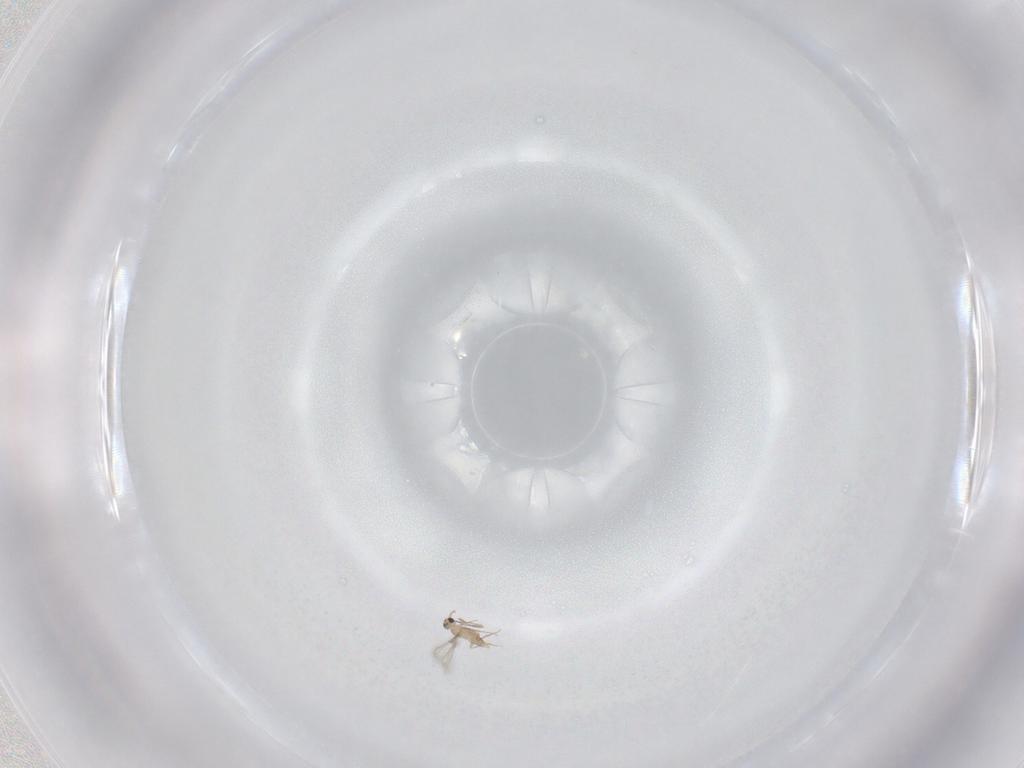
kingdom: Animalia
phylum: Arthropoda
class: Insecta
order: Hymenoptera
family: Mymaridae
